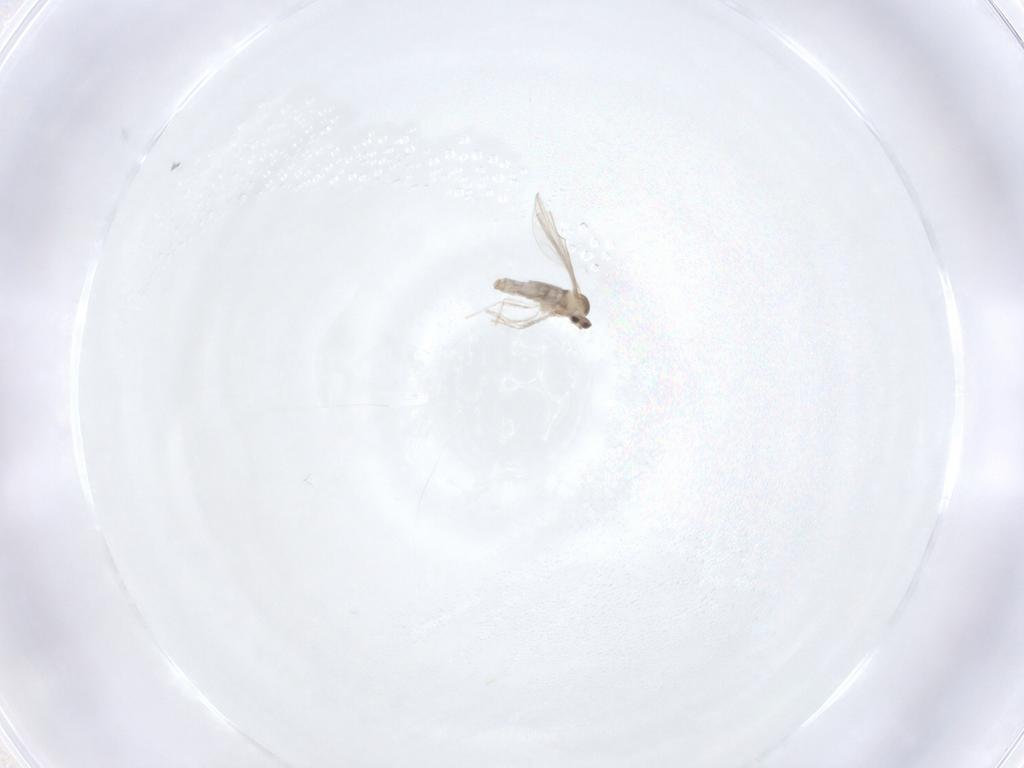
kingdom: Animalia
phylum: Arthropoda
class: Insecta
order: Diptera
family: Cecidomyiidae
